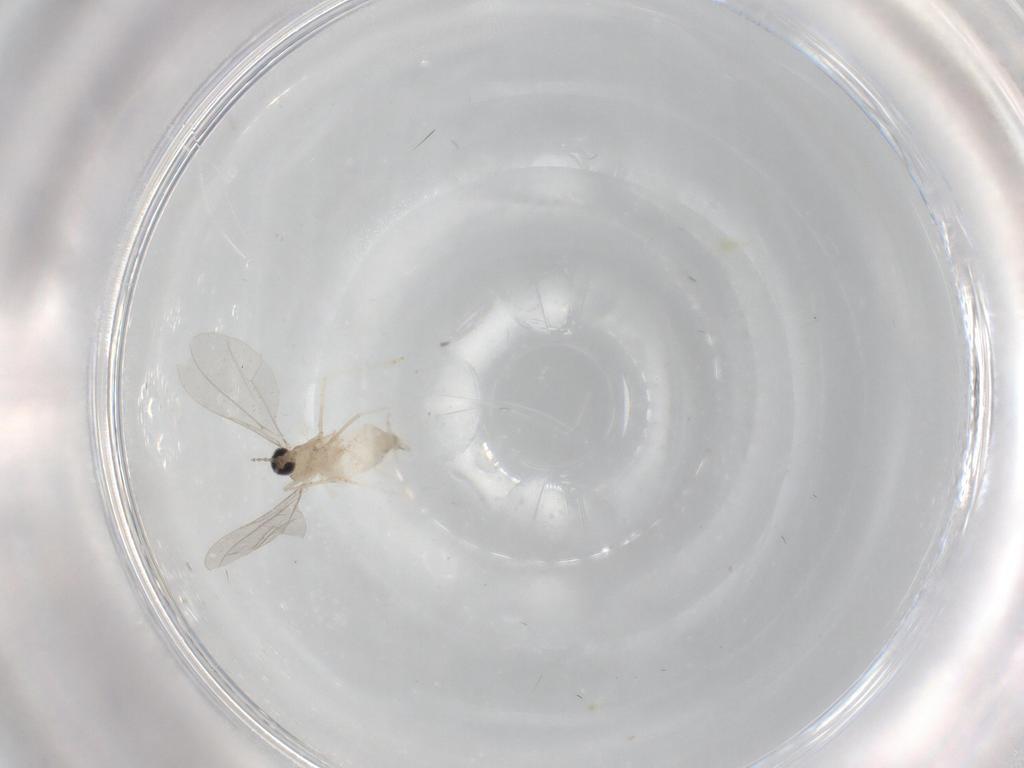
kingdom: Animalia
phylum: Arthropoda
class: Insecta
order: Diptera
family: Cecidomyiidae
